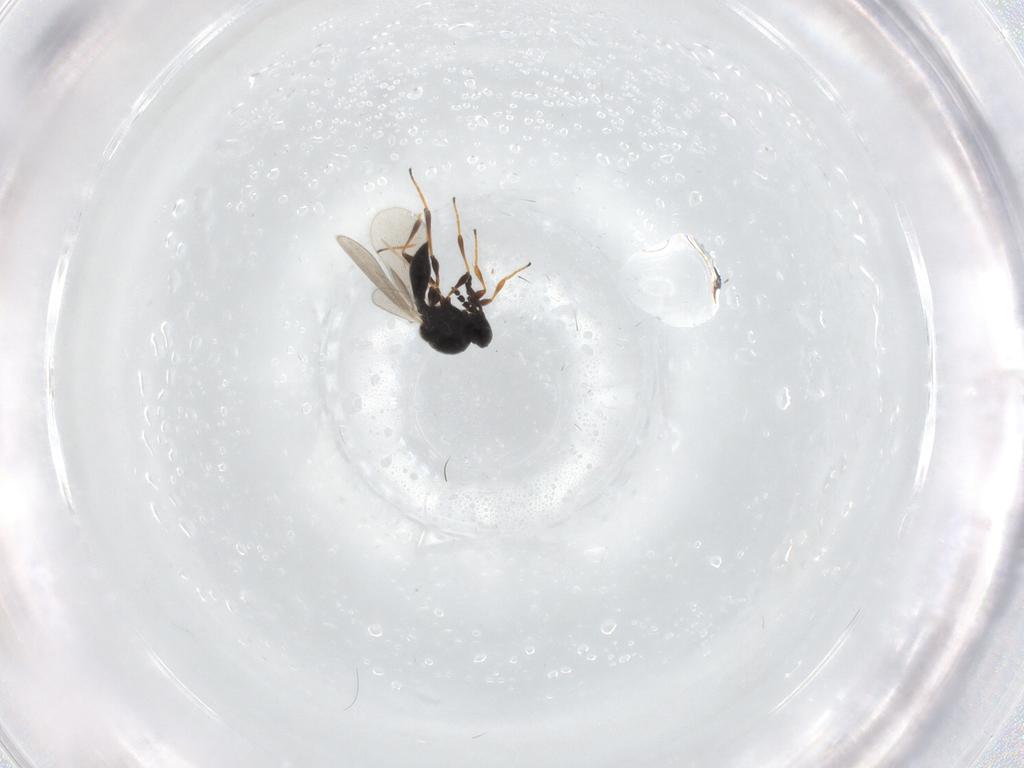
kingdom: Animalia
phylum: Arthropoda
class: Insecta
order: Hymenoptera
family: Platygastridae
